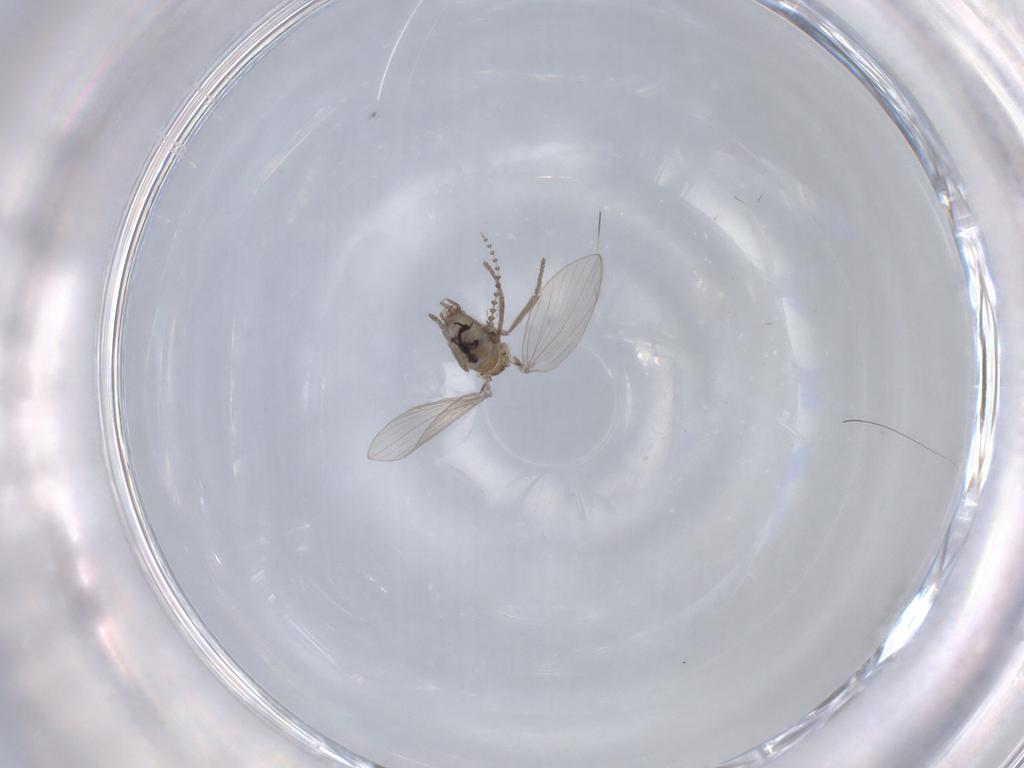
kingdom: Animalia
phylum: Arthropoda
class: Insecta
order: Diptera
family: Psychodidae
